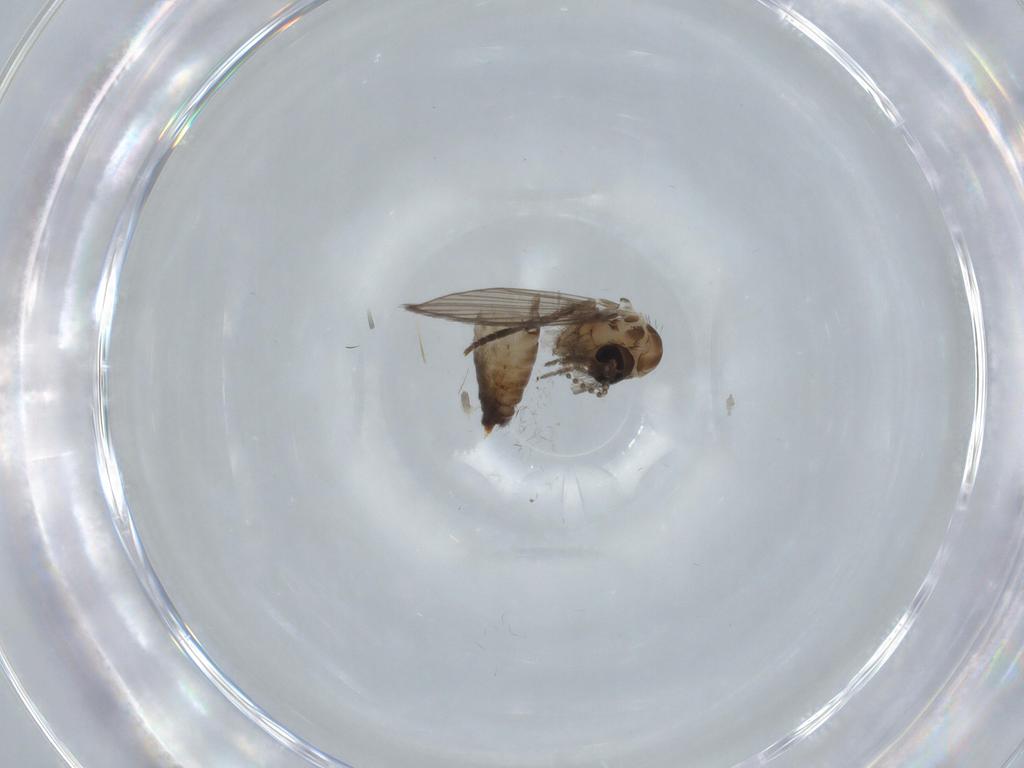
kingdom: Animalia
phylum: Arthropoda
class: Insecta
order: Diptera
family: Psychodidae
